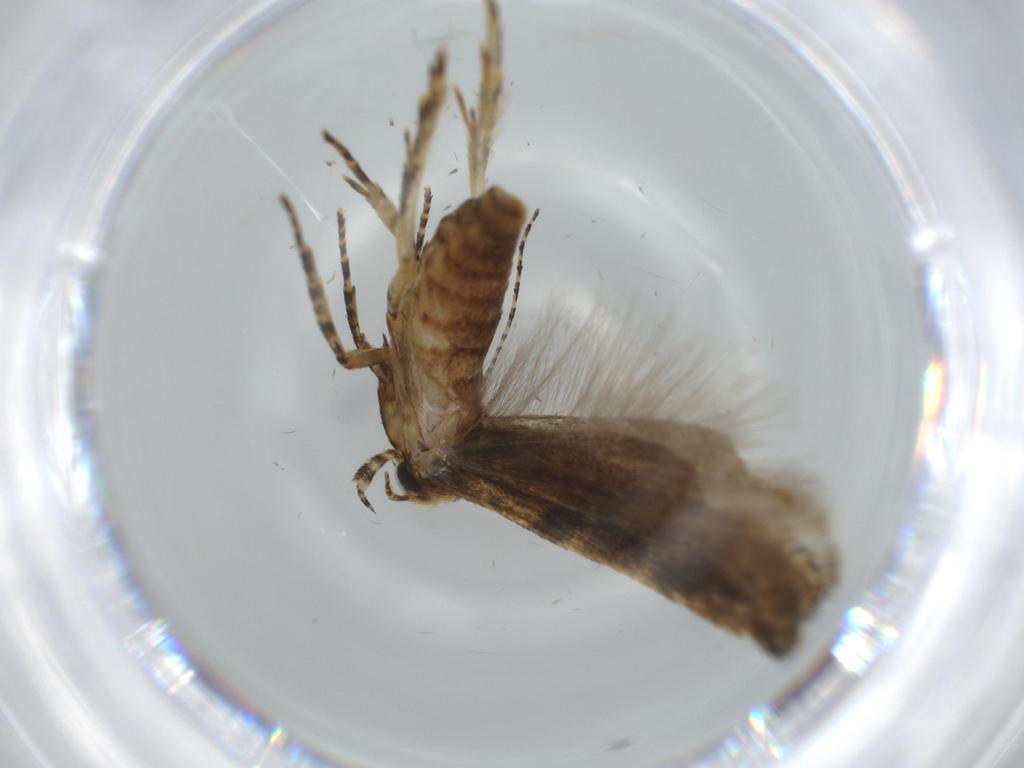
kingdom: Animalia
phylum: Arthropoda
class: Insecta
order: Lepidoptera
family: Gelechiidae
